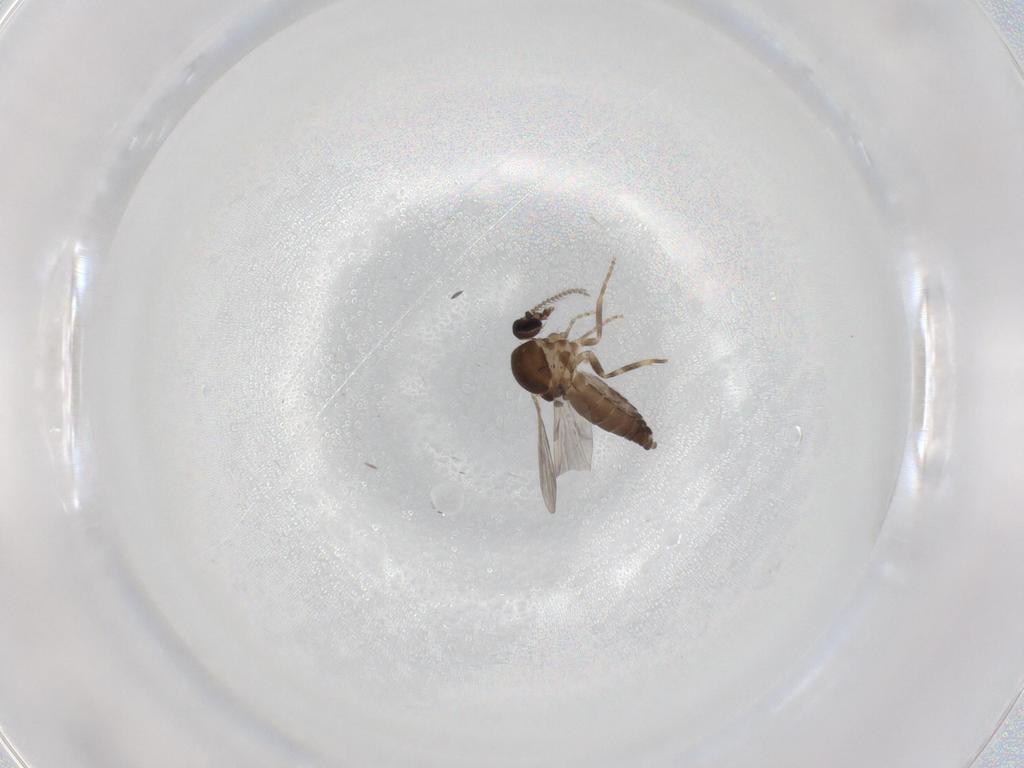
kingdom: Animalia
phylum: Arthropoda
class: Insecta
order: Diptera
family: Ceratopogonidae
